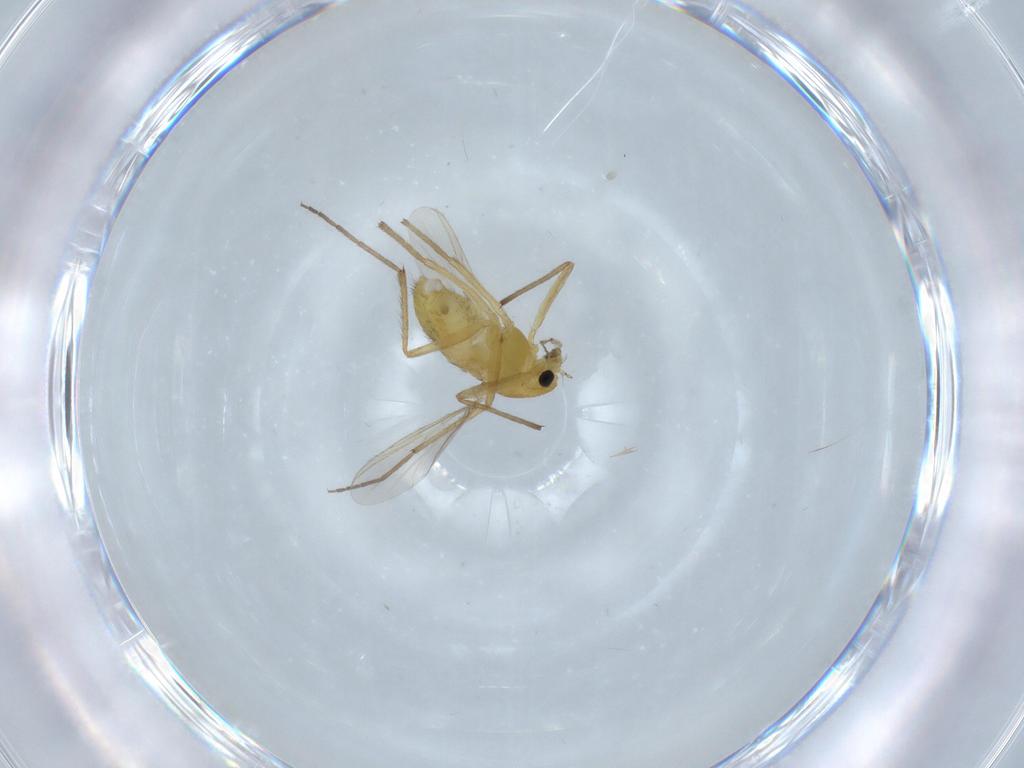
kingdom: Animalia
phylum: Arthropoda
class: Insecta
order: Diptera
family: Chironomidae
